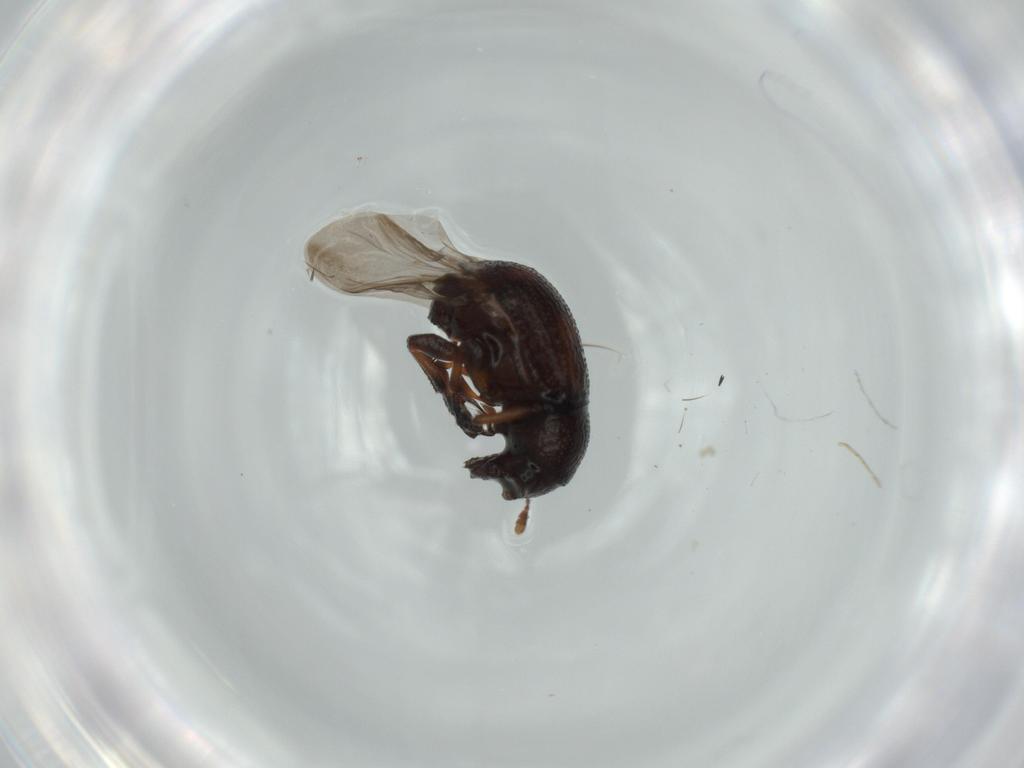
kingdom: Animalia
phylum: Arthropoda
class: Insecta
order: Coleoptera
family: Anthribidae
